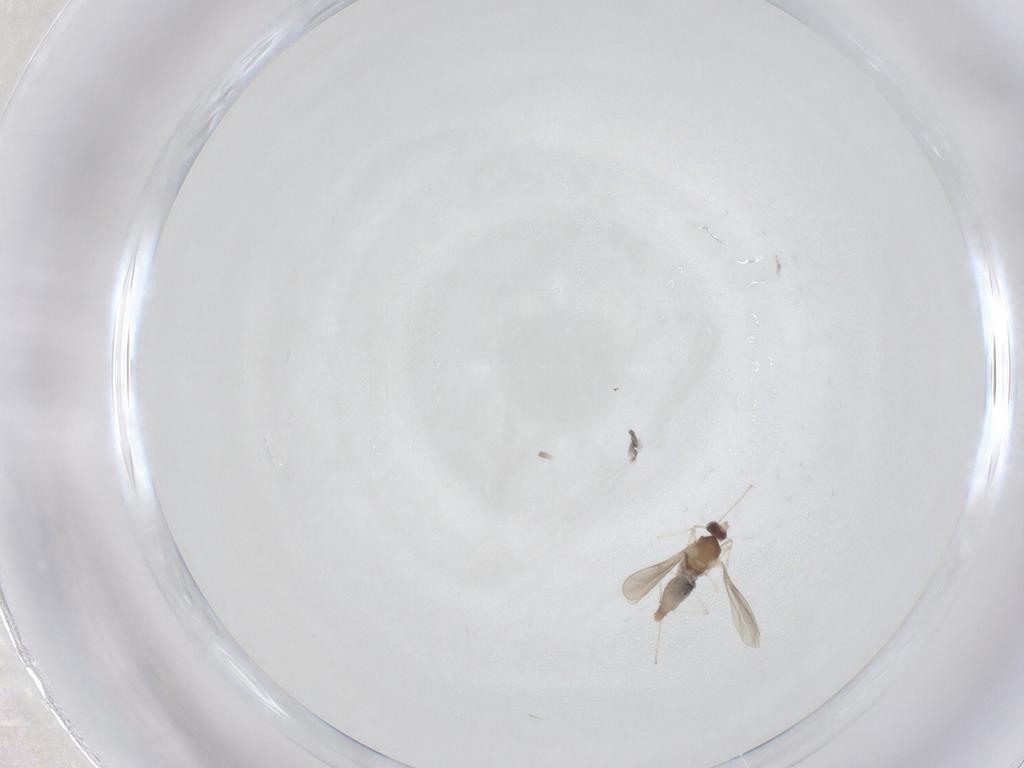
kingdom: Animalia
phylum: Arthropoda
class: Insecta
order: Diptera
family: Cecidomyiidae
